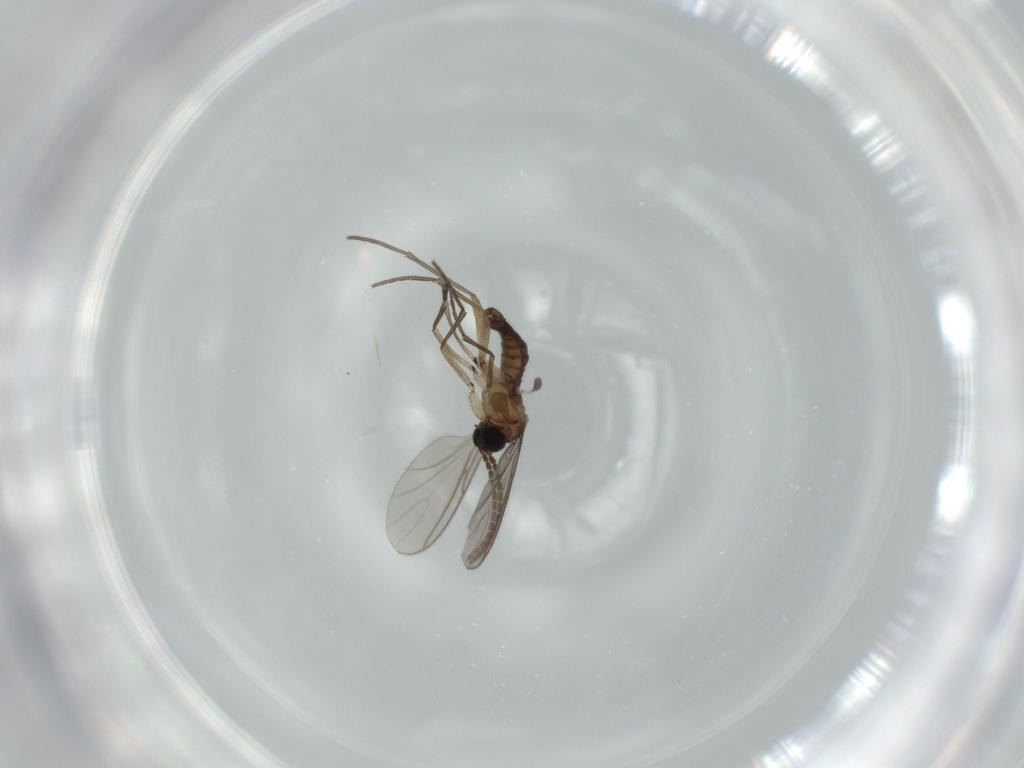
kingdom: Animalia
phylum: Arthropoda
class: Insecta
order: Diptera
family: Sciaridae
